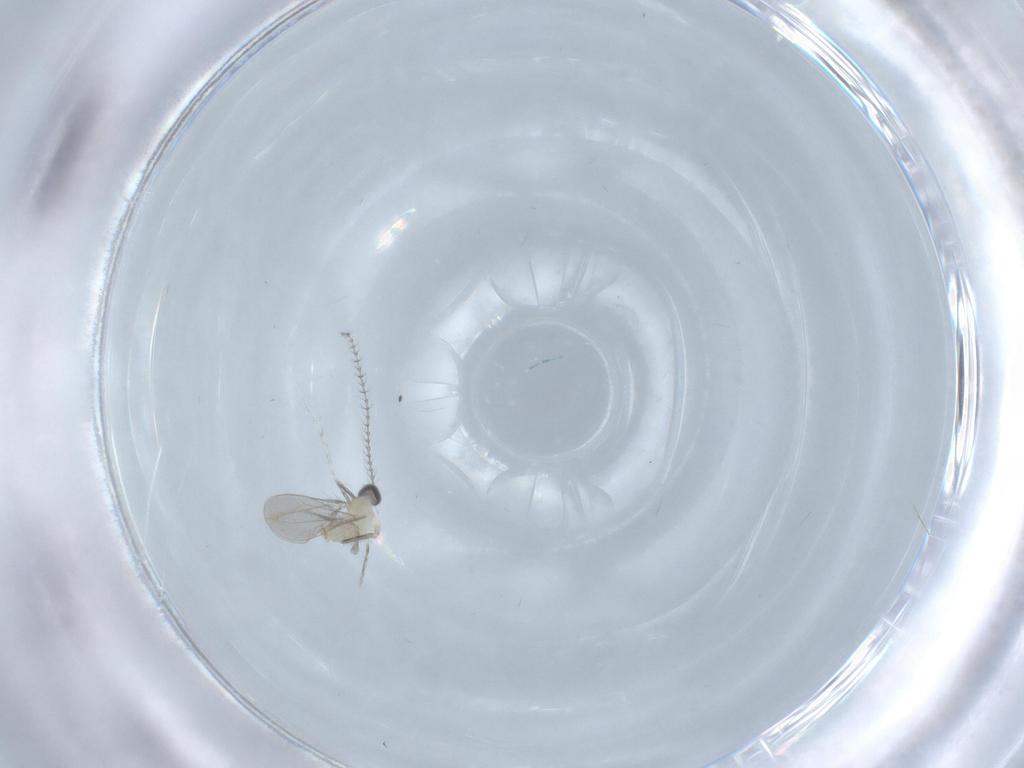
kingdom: Animalia
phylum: Arthropoda
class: Insecta
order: Diptera
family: Cecidomyiidae
